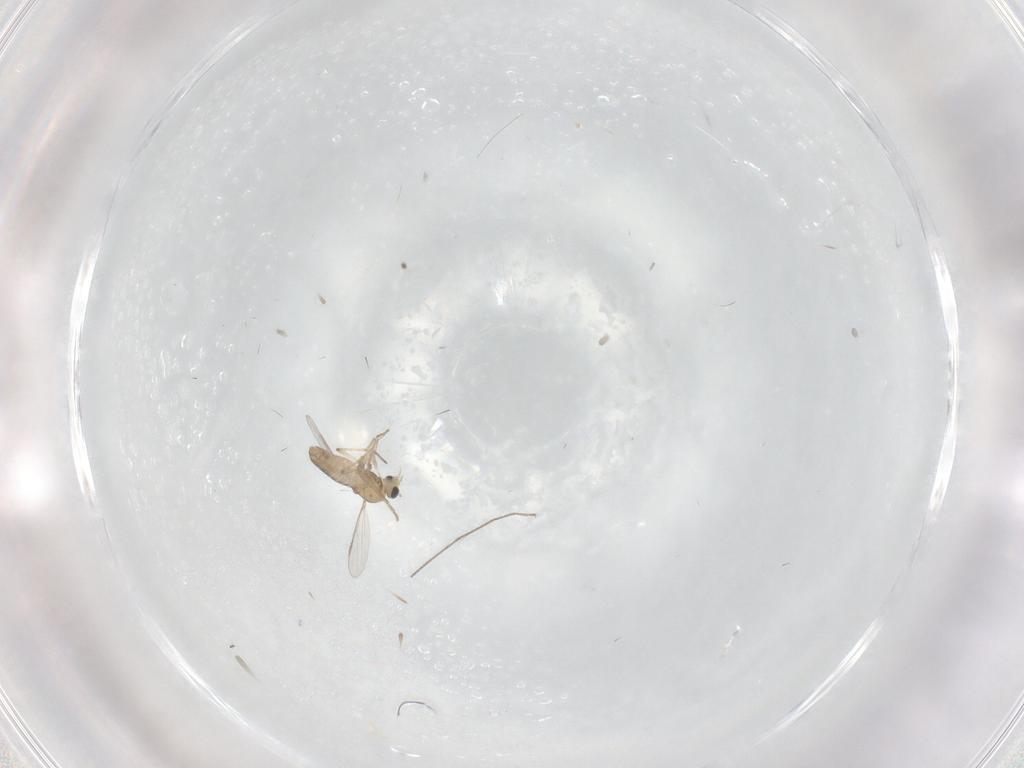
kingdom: Animalia
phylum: Arthropoda
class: Insecta
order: Diptera
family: Chironomidae
